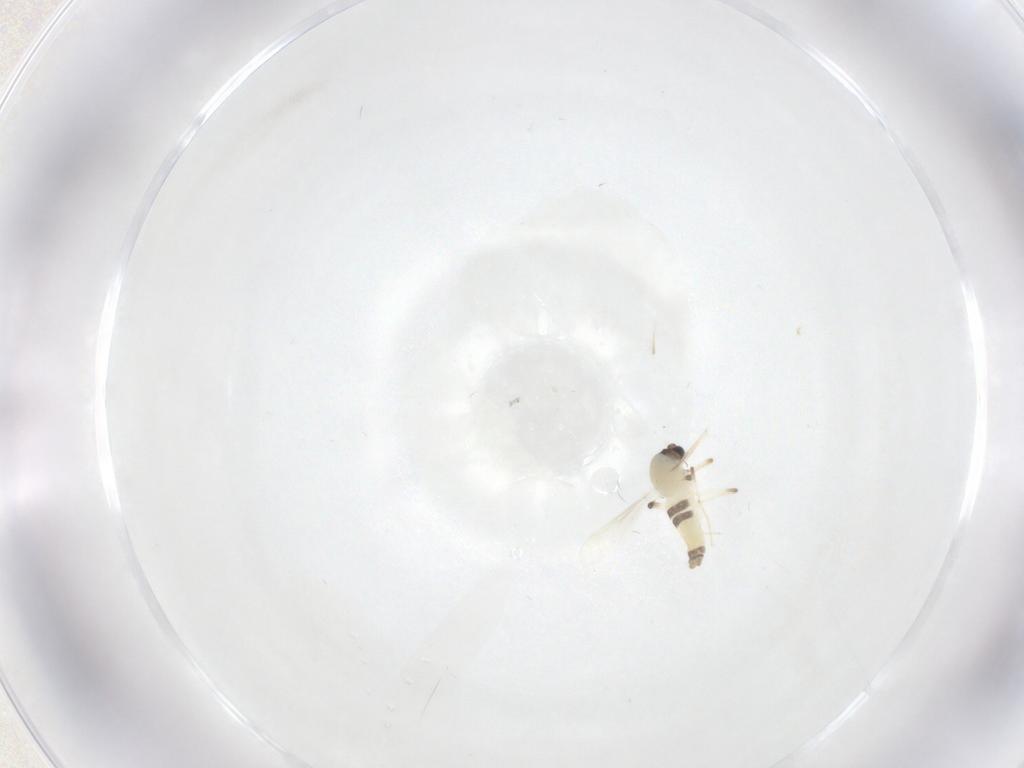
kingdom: Animalia
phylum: Arthropoda
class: Insecta
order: Diptera
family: Chironomidae
